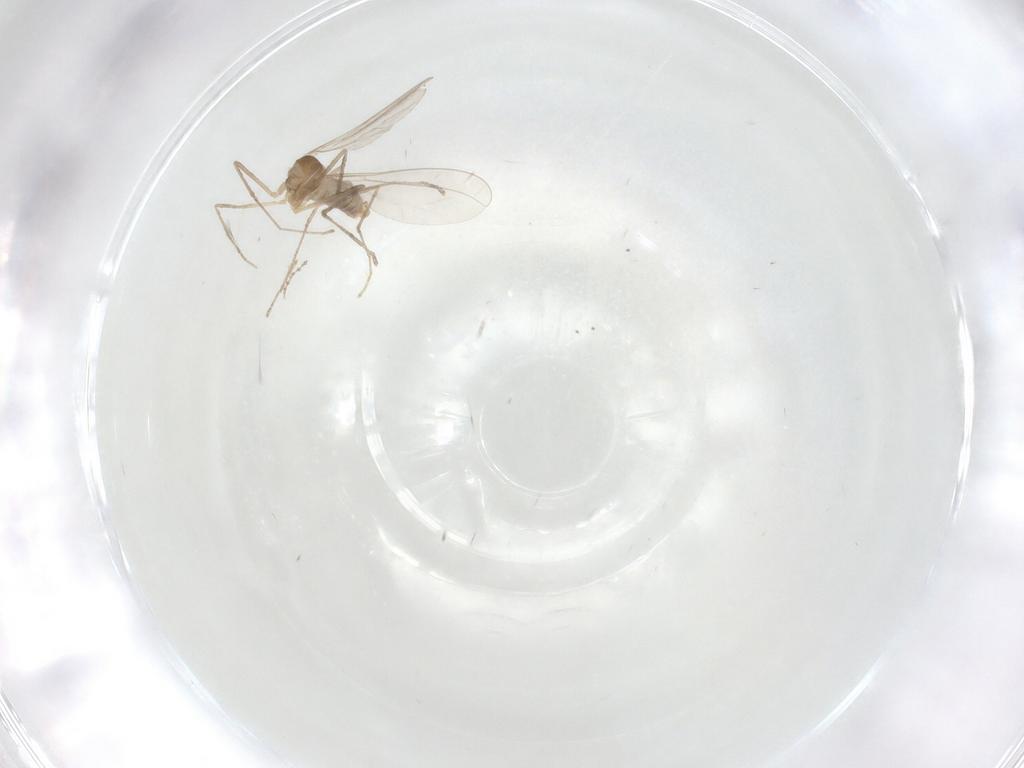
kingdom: Animalia
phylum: Arthropoda
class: Insecta
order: Diptera
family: Cecidomyiidae
